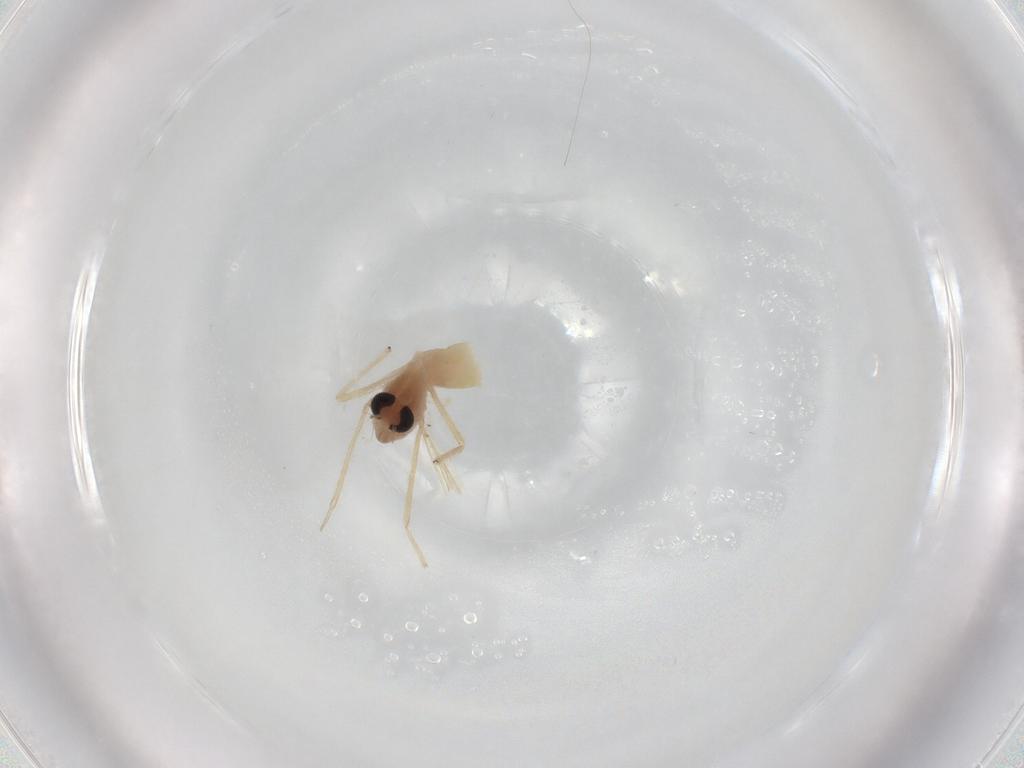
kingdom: Animalia
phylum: Arthropoda
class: Insecta
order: Diptera
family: Chironomidae
